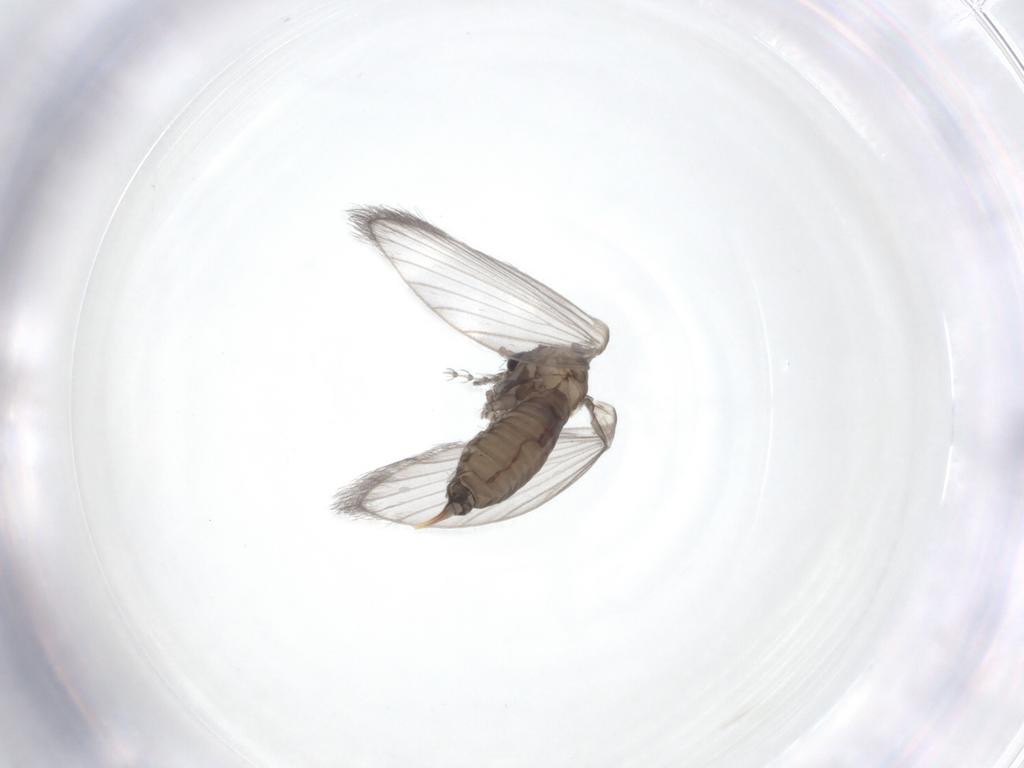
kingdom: Animalia
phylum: Arthropoda
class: Insecta
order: Diptera
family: Psychodidae
